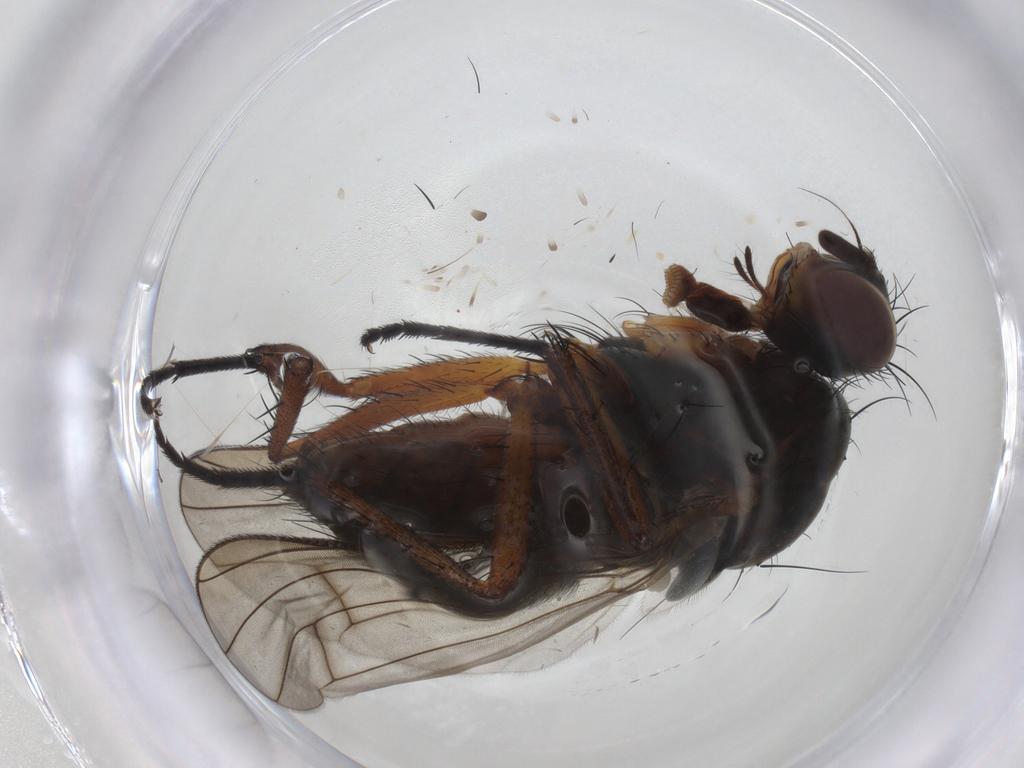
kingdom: Animalia
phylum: Arthropoda
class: Insecta
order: Diptera
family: Anthomyiidae
